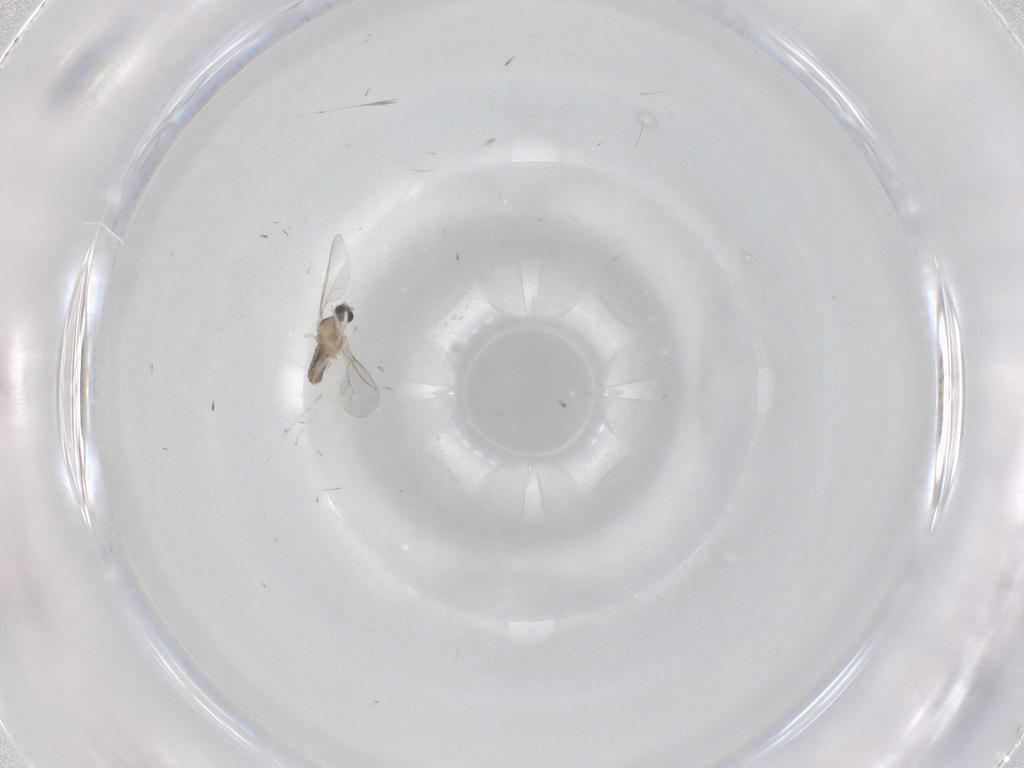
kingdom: Animalia
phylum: Arthropoda
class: Insecta
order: Diptera
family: Cecidomyiidae
